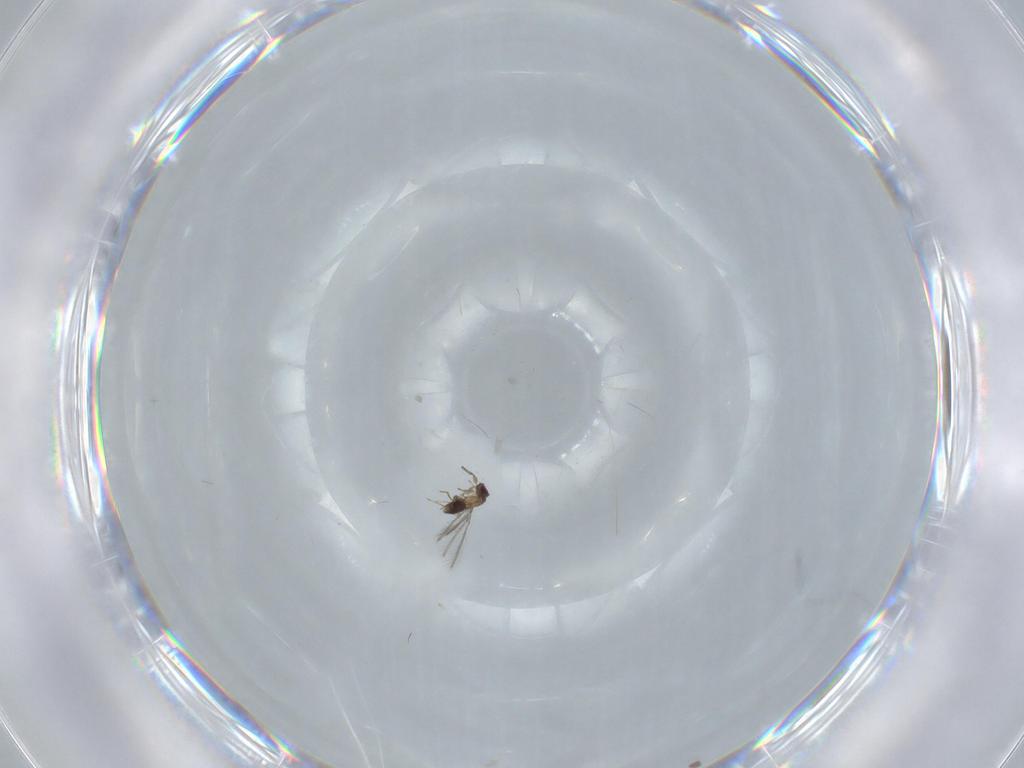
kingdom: Animalia
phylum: Arthropoda
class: Insecta
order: Hymenoptera
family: Mymaridae
